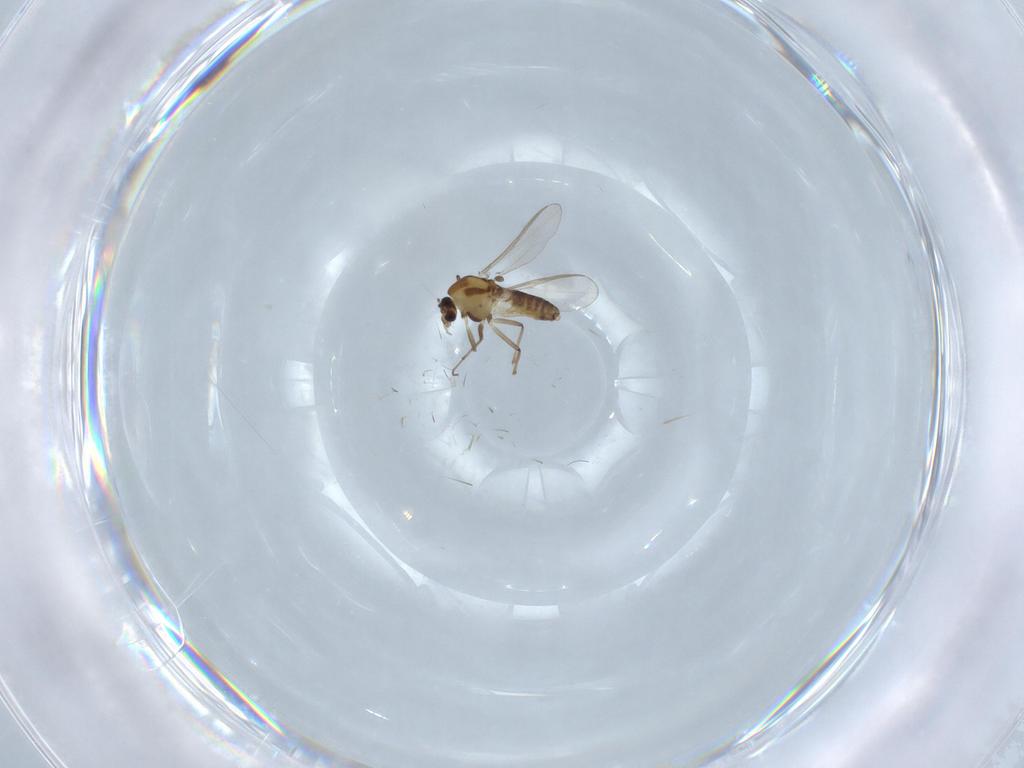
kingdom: Animalia
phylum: Arthropoda
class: Insecta
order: Diptera
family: Chironomidae
